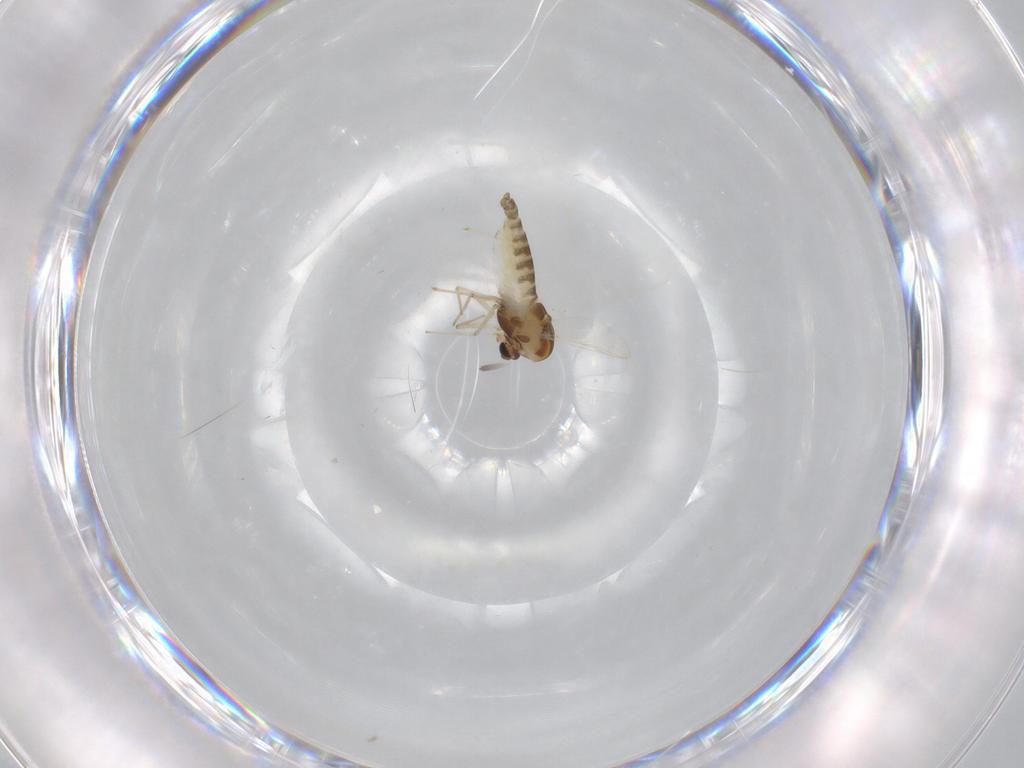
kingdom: Animalia
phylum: Arthropoda
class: Insecta
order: Diptera
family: Chironomidae
